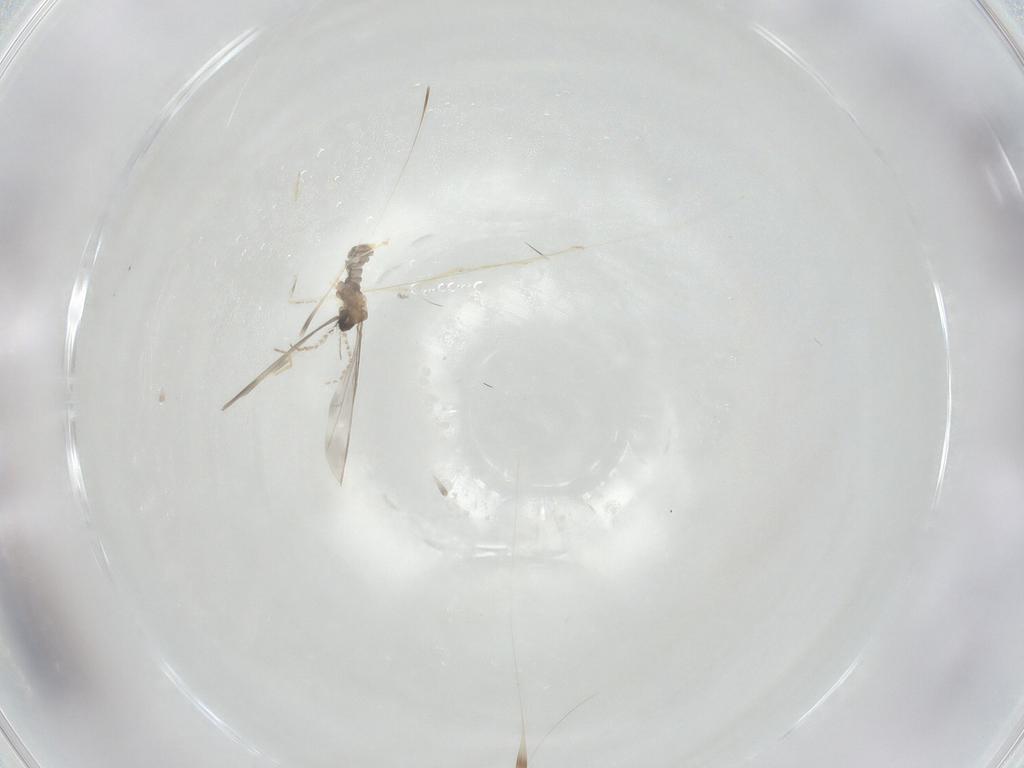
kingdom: Animalia
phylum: Arthropoda
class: Insecta
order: Diptera
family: Cecidomyiidae
